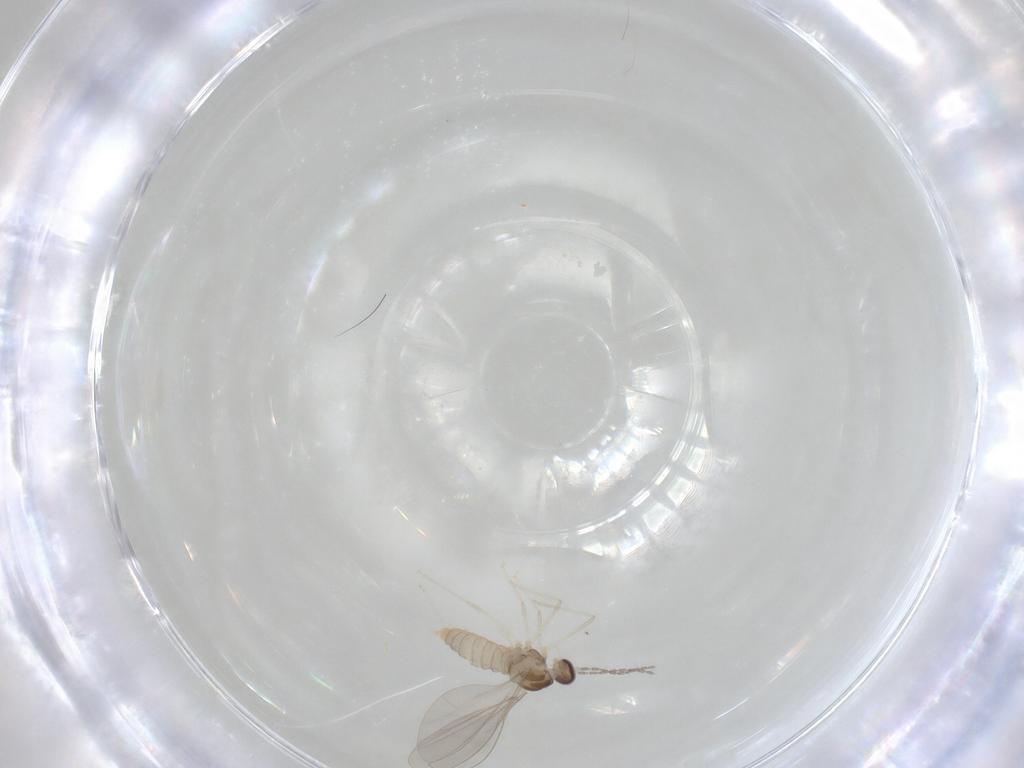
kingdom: Animalia
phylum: Arthropoda
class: Insecta
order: Diptera
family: Cecidomyiidae
